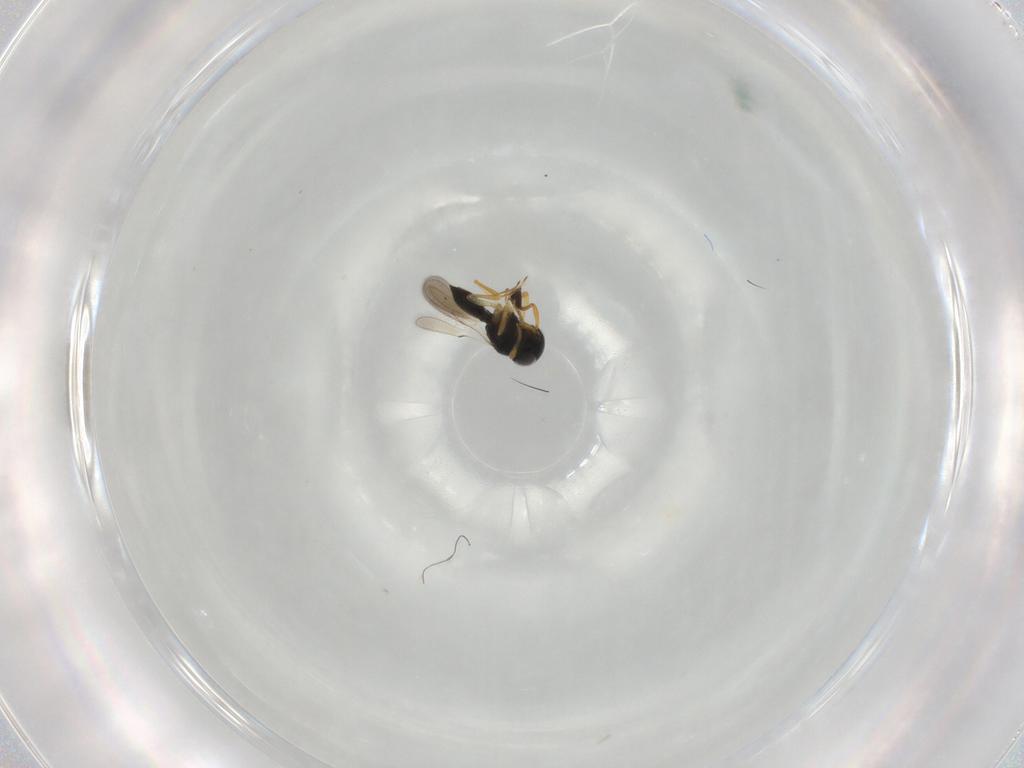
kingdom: Animalia
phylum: Arthropoda
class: Insecta
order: Hymenoptera
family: Scelionidae
